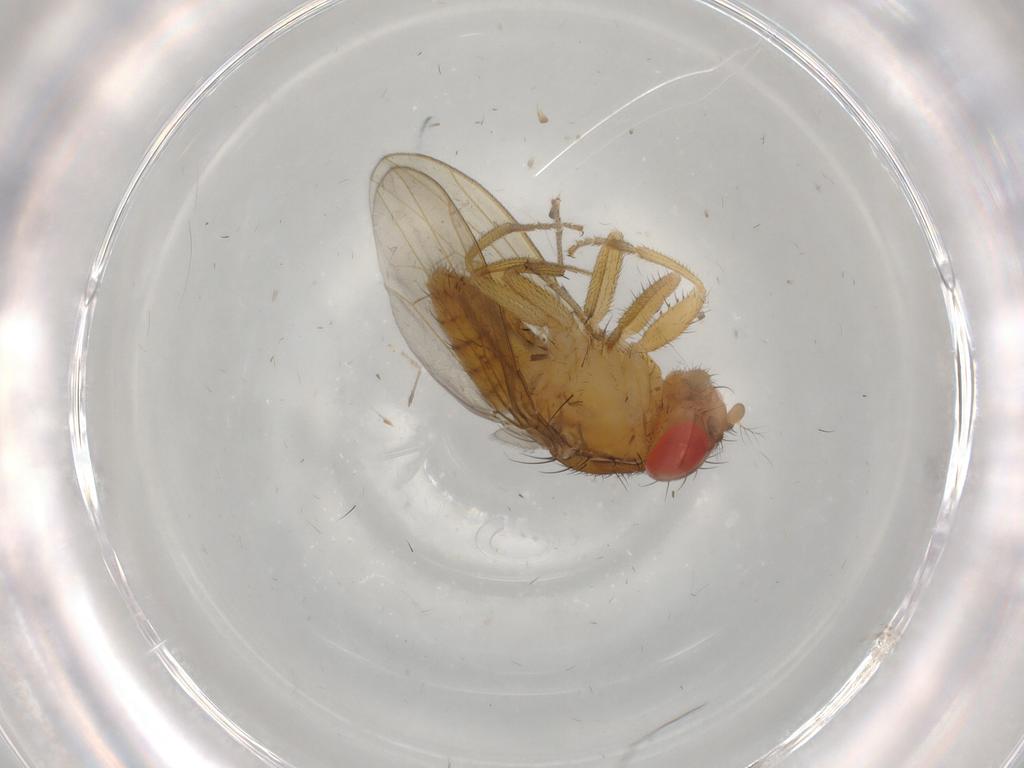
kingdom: Animalia
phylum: Arthropoda
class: Insecta
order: Diptera
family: Drosophilidae
